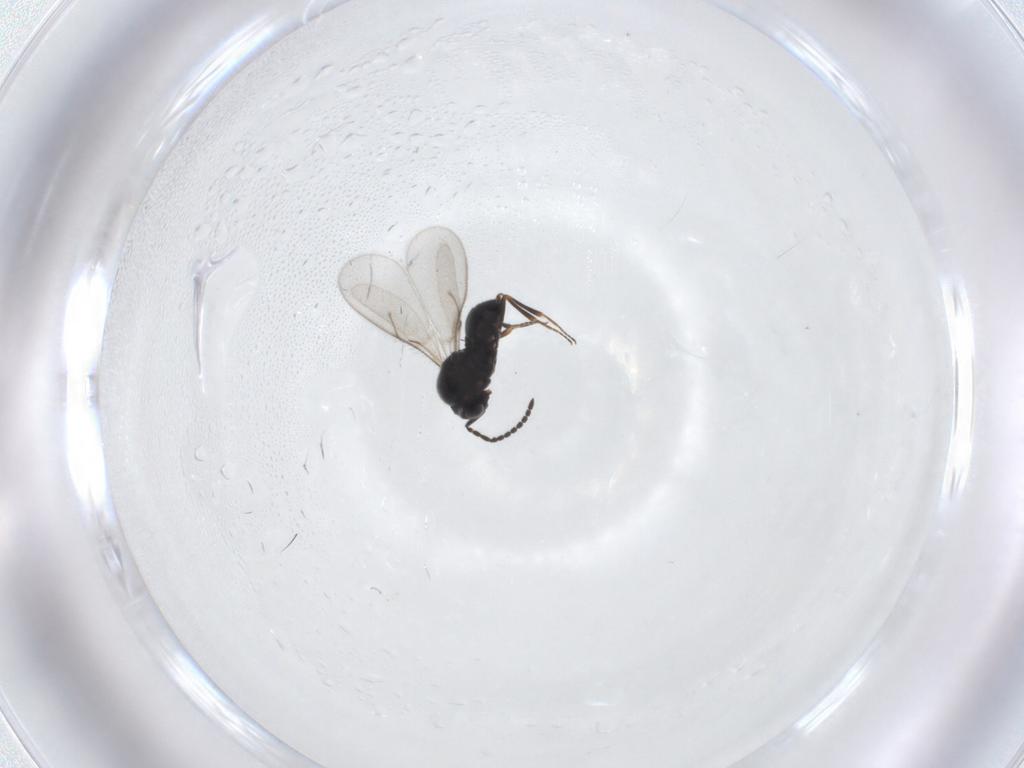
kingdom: Animalia
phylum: Arthropoda
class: Insecta
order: Hymenoptera
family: Scelionidae
